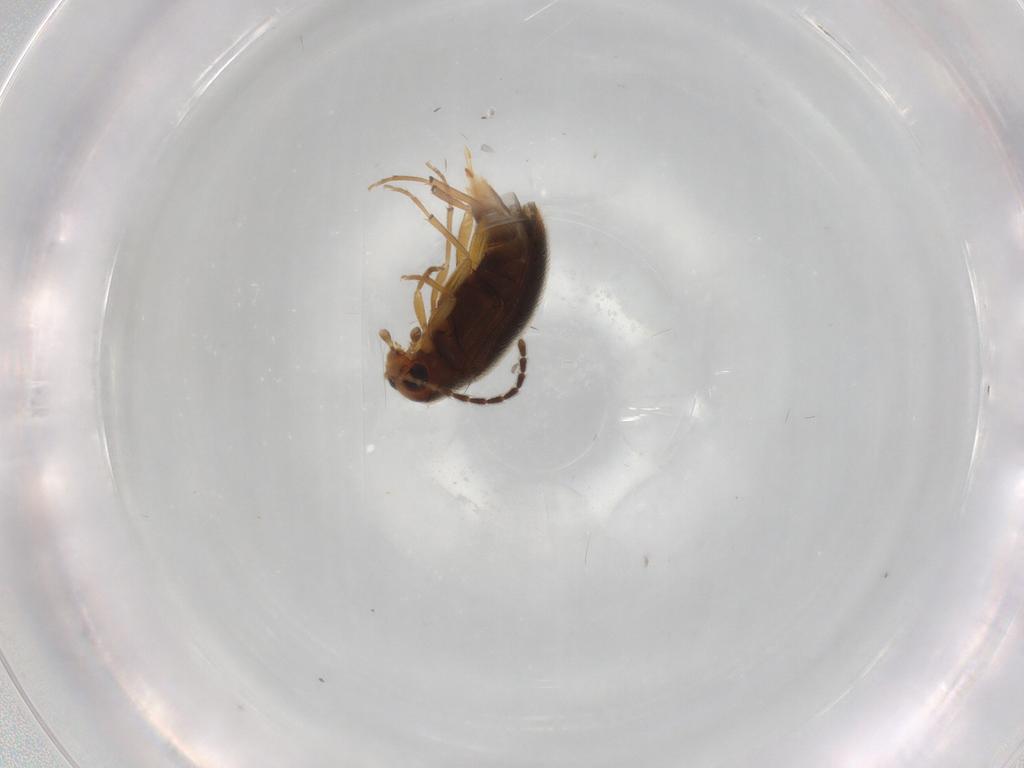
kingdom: Animalia
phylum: Arthropoda
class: Insecta
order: Coleoptera
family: Melandryidae
